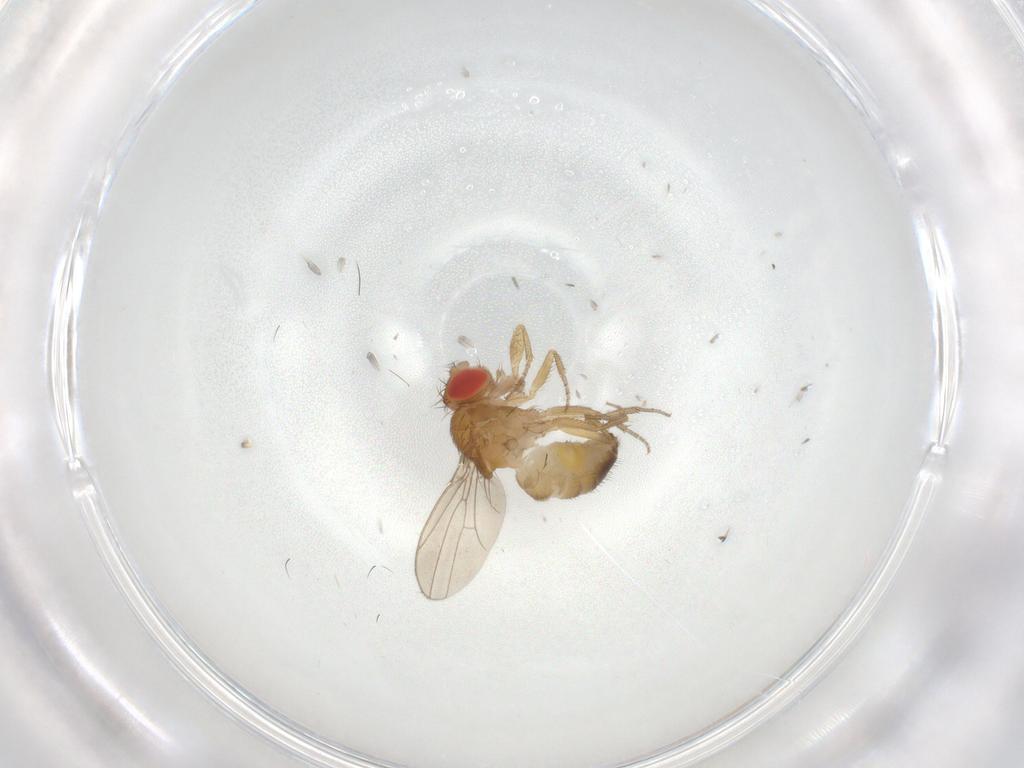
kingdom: Animalia
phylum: Arthropoda
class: Insecta
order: Diptera
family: Drosophilidae
